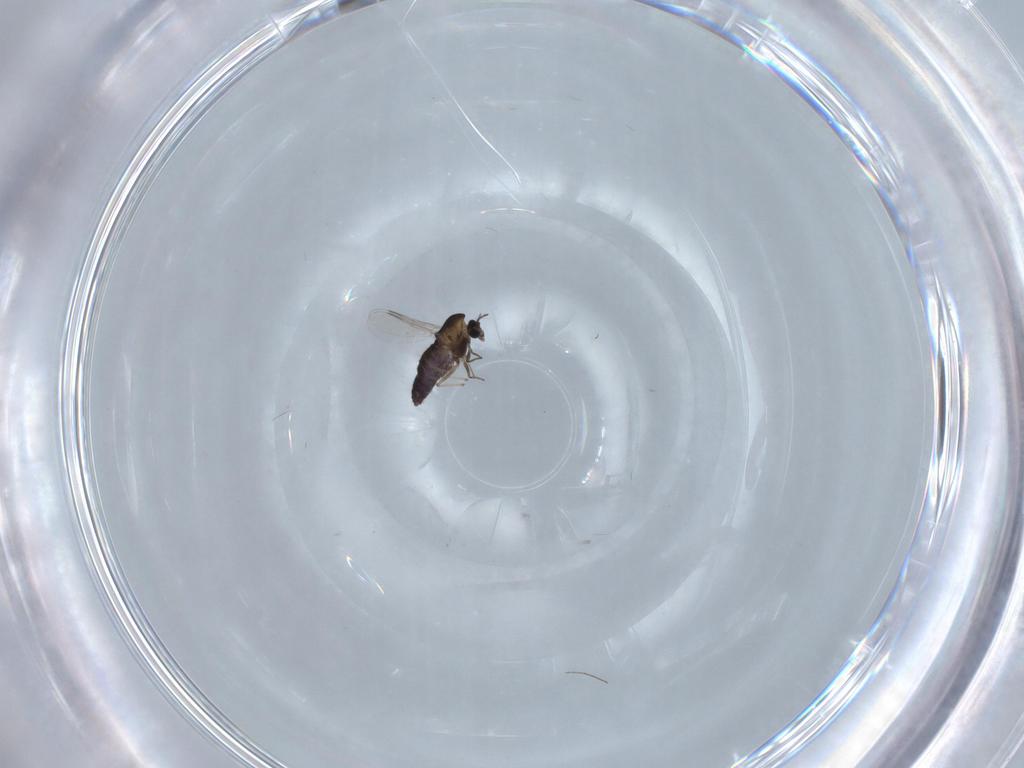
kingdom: Animalia
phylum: Arthropoda
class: Insecta
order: Diptera
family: Chironomidae
